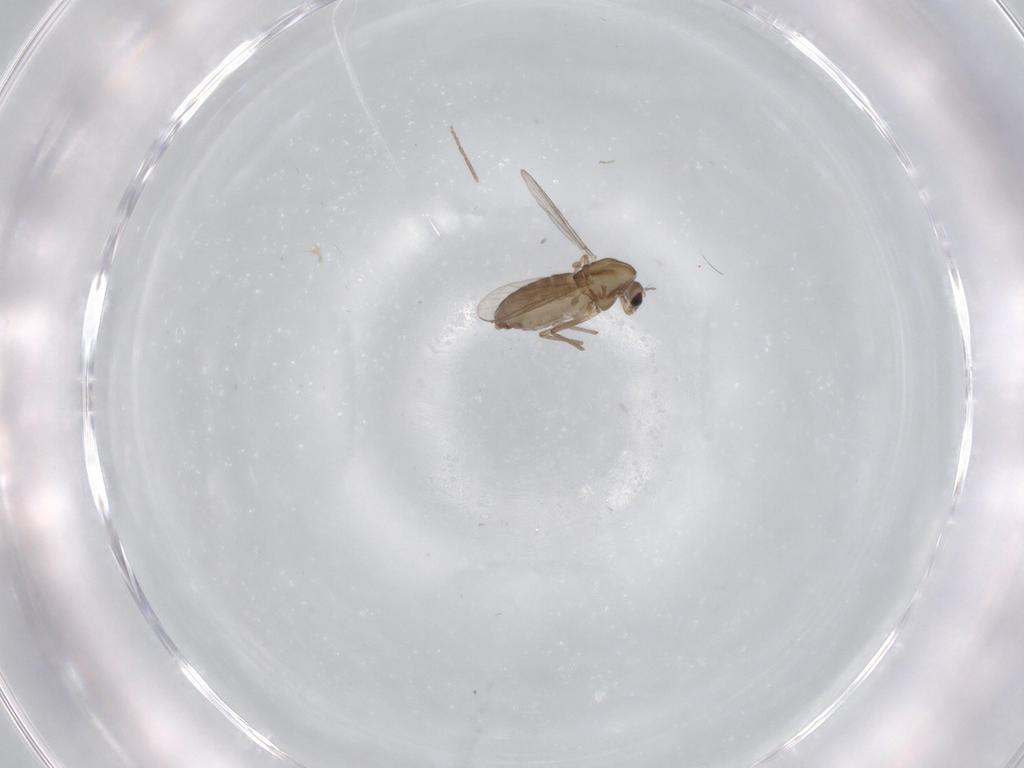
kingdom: Animalia
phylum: Arthropoda
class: Insecta
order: Diptera
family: Chironomidae
